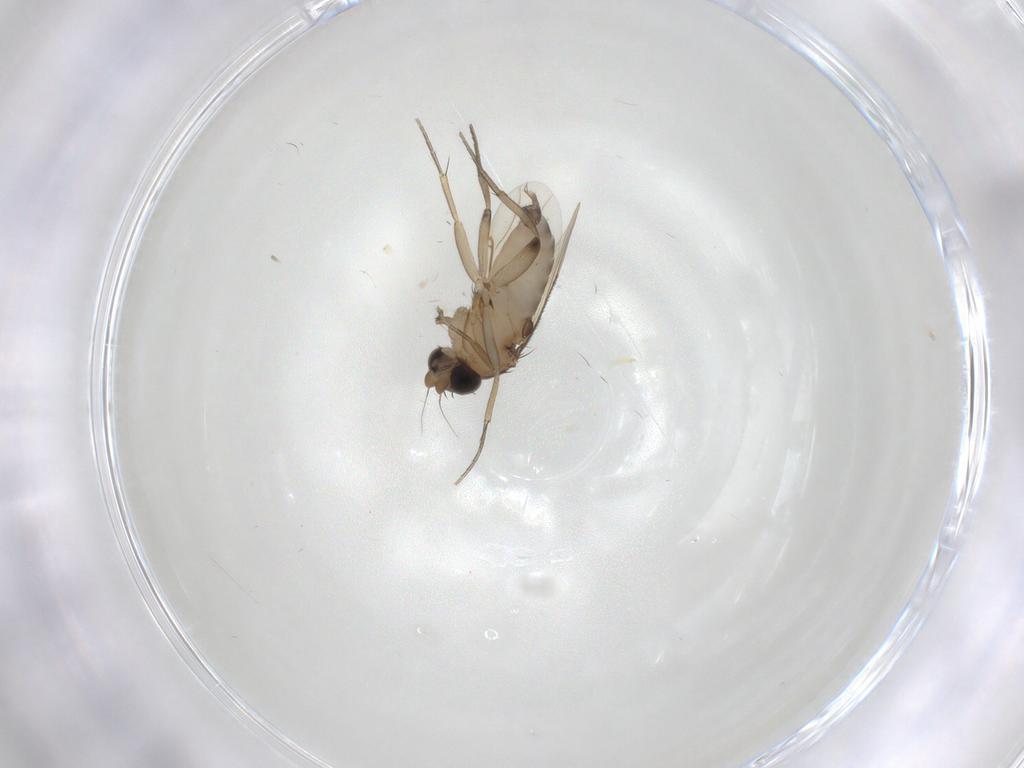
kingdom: Animalia
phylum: Arthropoda
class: Insecta
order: Diptera
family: Phoridae
